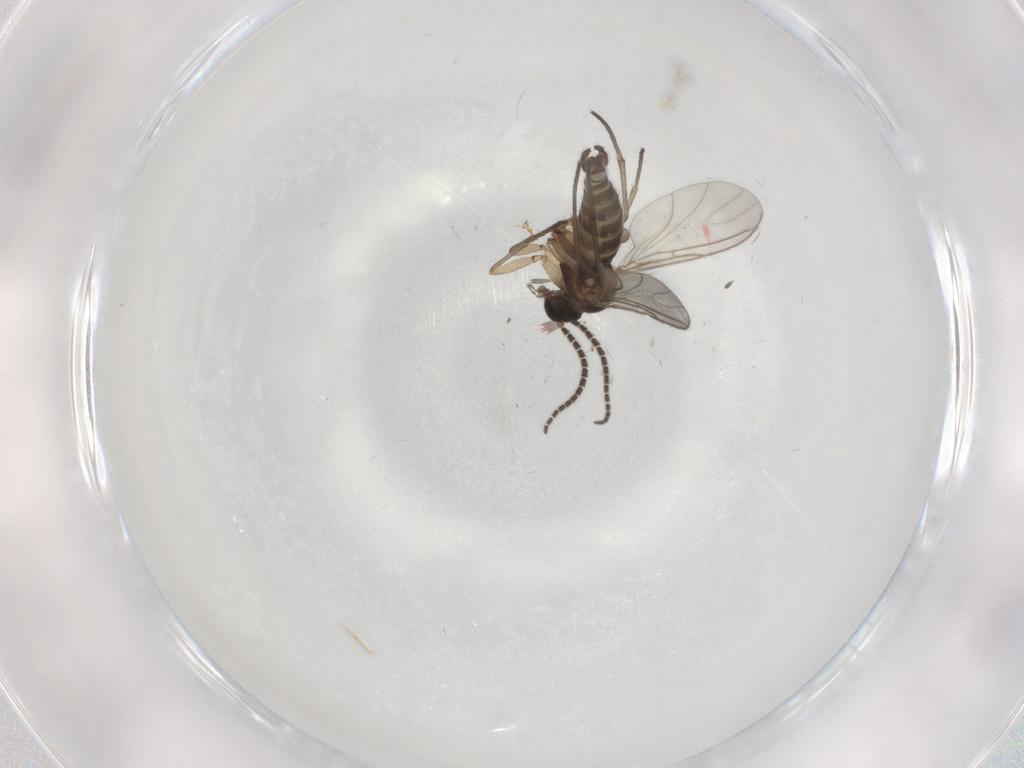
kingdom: Animalia
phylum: Arthropoda
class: Insecta
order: Diptera
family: Sciaridae
